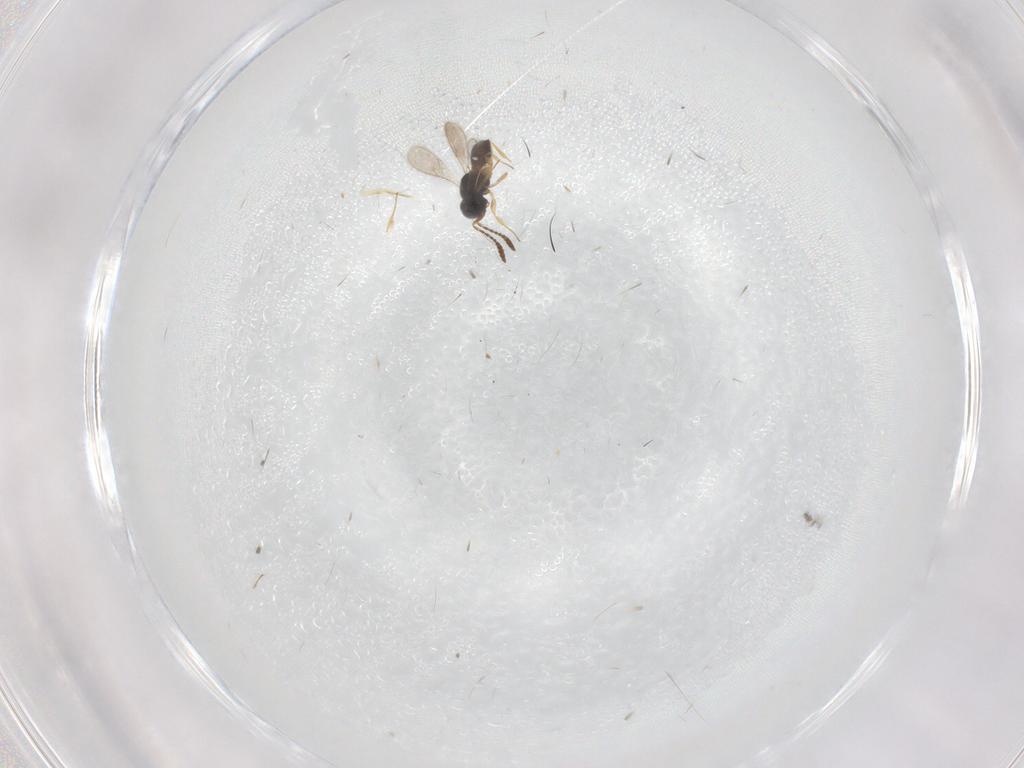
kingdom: Animalia
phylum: Arthropoda
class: Insecta
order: Hymenoptera
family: Scelionidae
